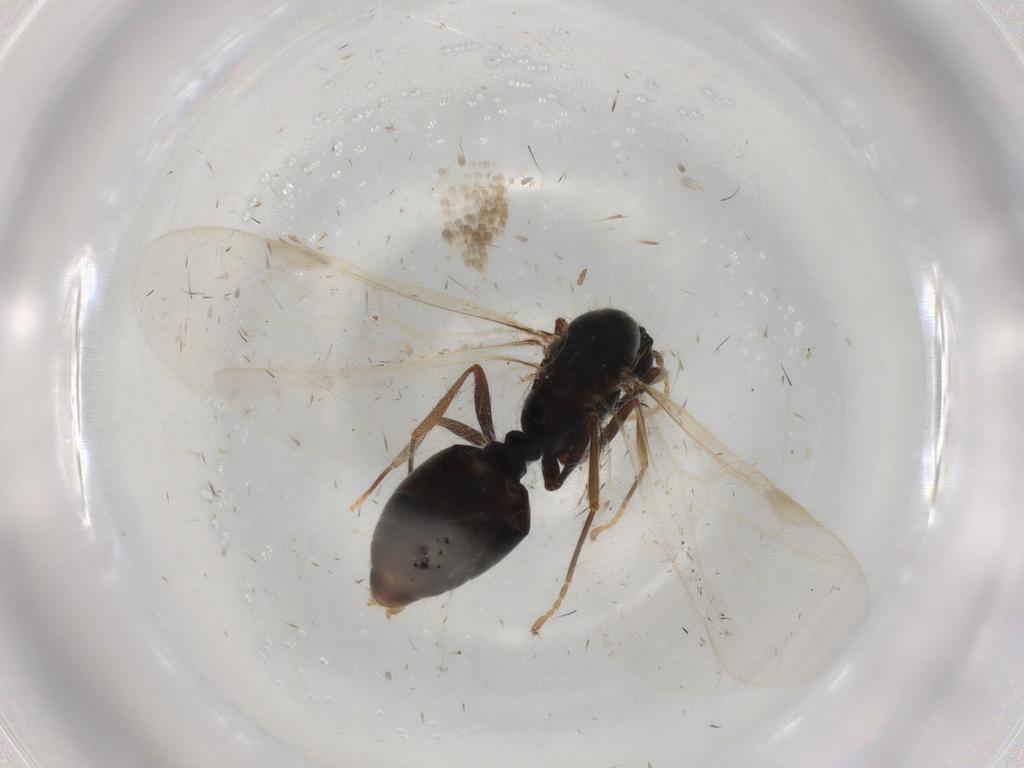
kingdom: Animalia
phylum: Arthropoda
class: Insecta
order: Hymenoptera
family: Formicidae
